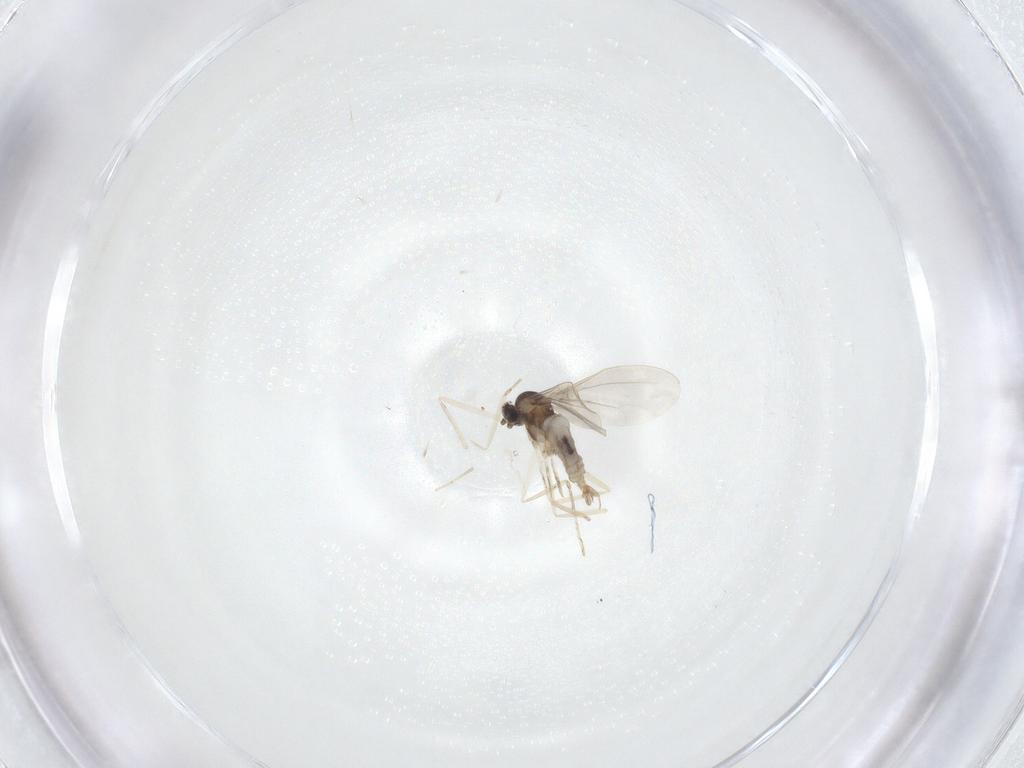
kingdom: Animalia
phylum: Arthropoda
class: Insecta
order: Diptera
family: Cecidomyiidae
